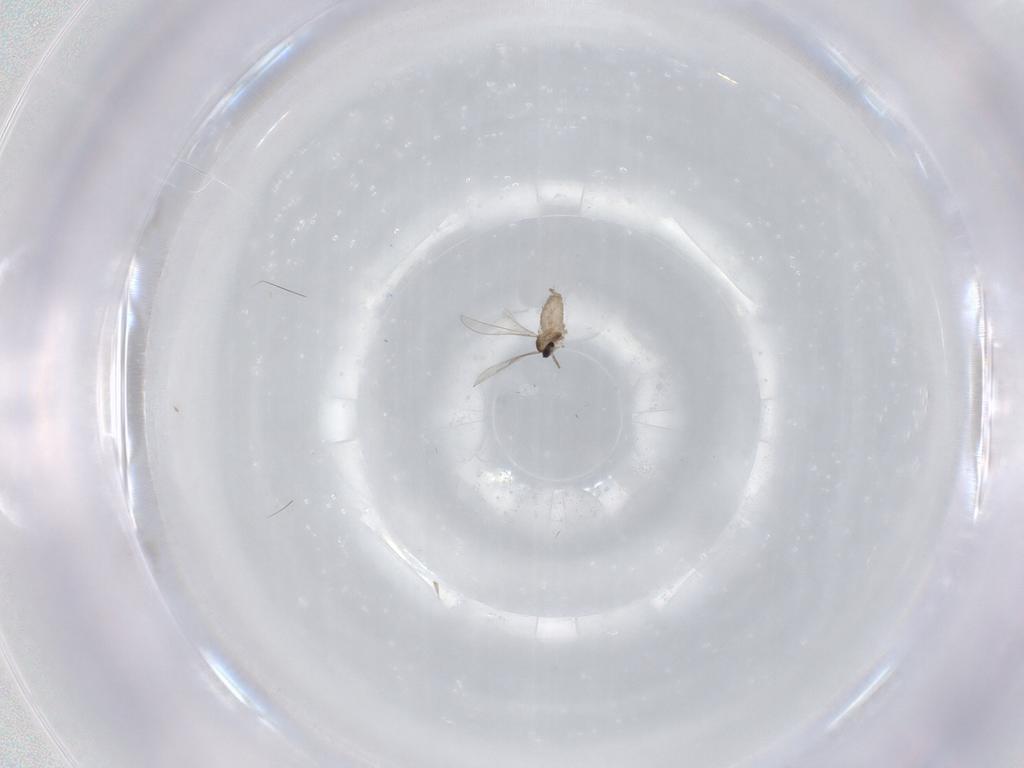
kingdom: Animalia
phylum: Arthropoda
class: Insecta
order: Diptera
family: Cecidomyiidae
